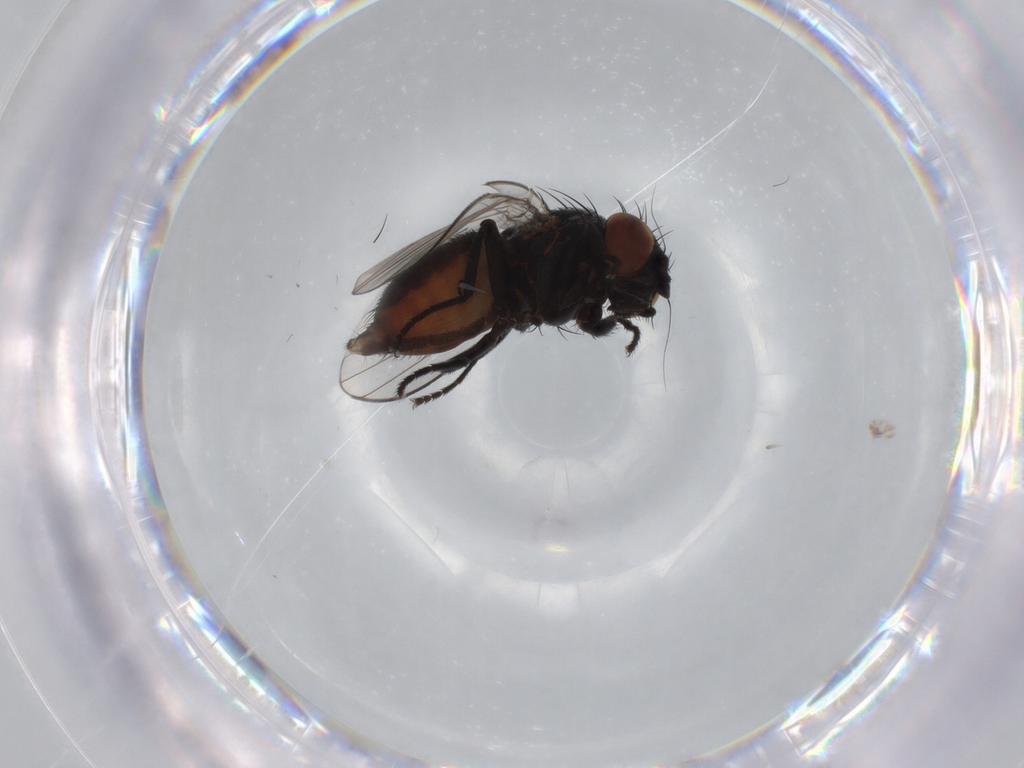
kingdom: Animalia
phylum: Arthropoda
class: Insecta
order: Diptera
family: Milichiidae
